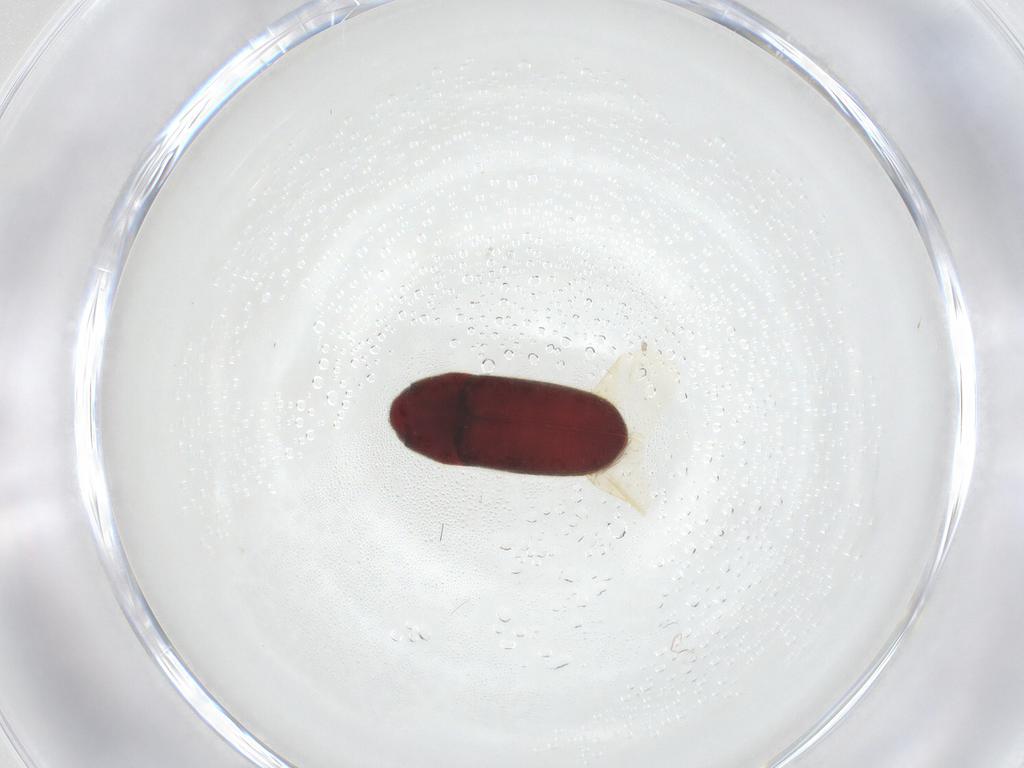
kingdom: Animalia
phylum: Arthropoda
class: Insecta
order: Coleoptera
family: Throscidae
